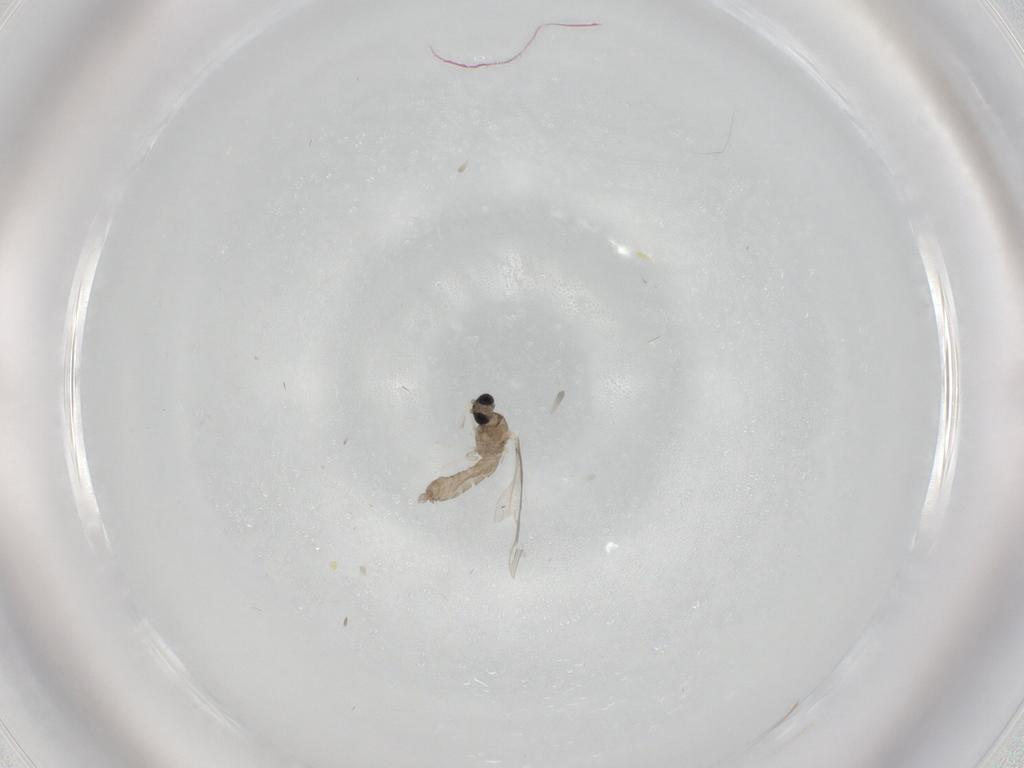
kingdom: Animalia
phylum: Arthropoda
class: Insecta
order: Diptera
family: Cecidomyiidae
